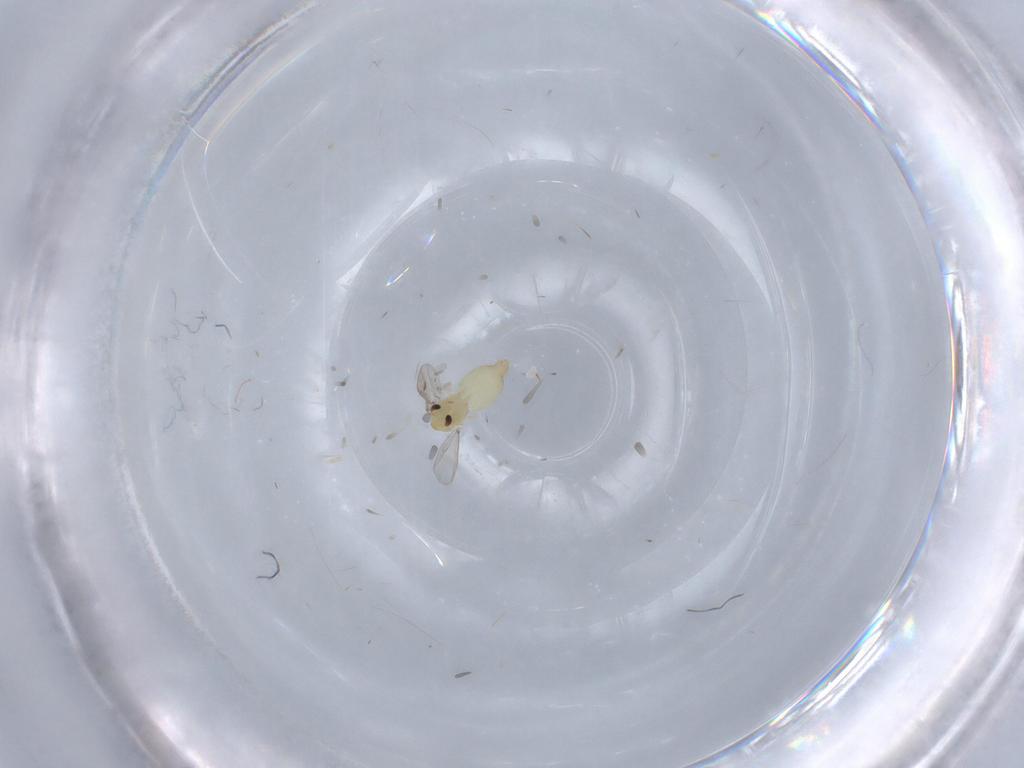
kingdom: Animalia
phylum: Arthropoda
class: Insecta
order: Diptera
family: Chironomidae
